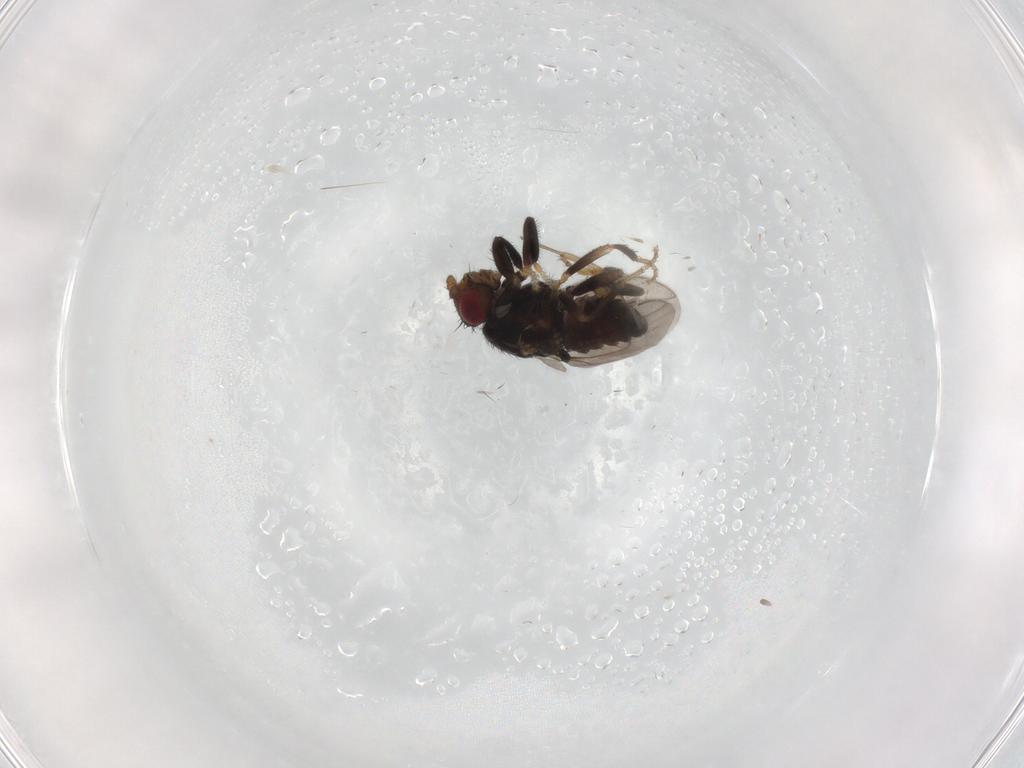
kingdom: Animalia
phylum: Arthropoda
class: Insecta
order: Diptera
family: Sphaeroceridae
